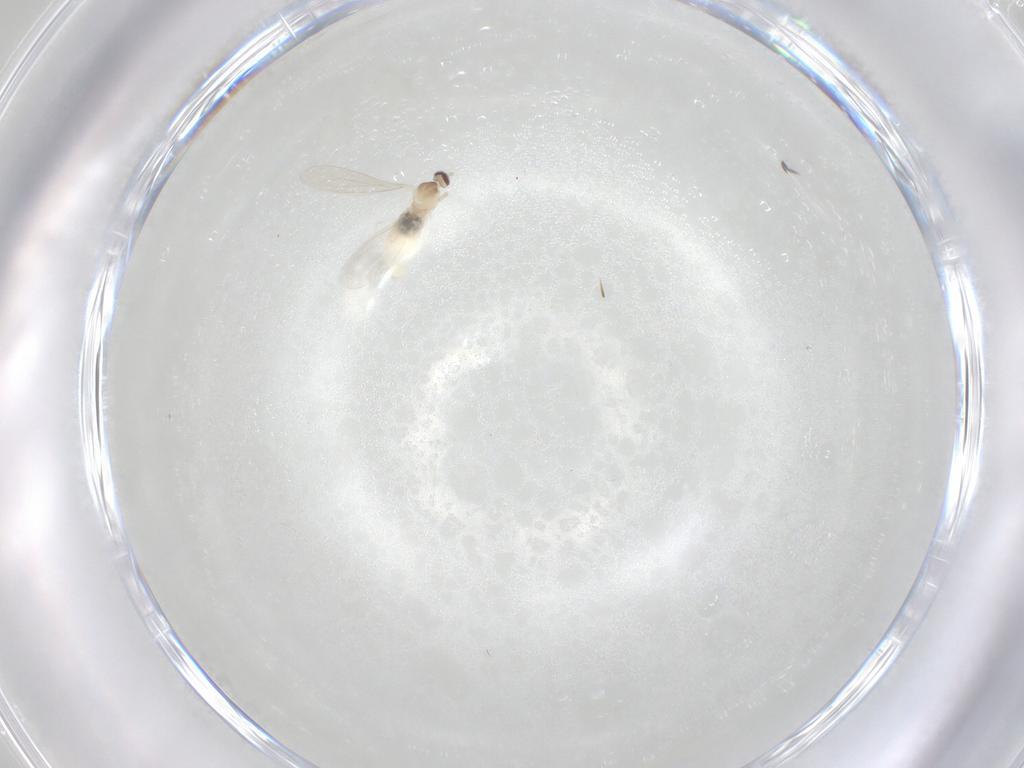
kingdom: Animalia
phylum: Arthropoda
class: Insecta
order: Diptera
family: Cecidomyiidae
